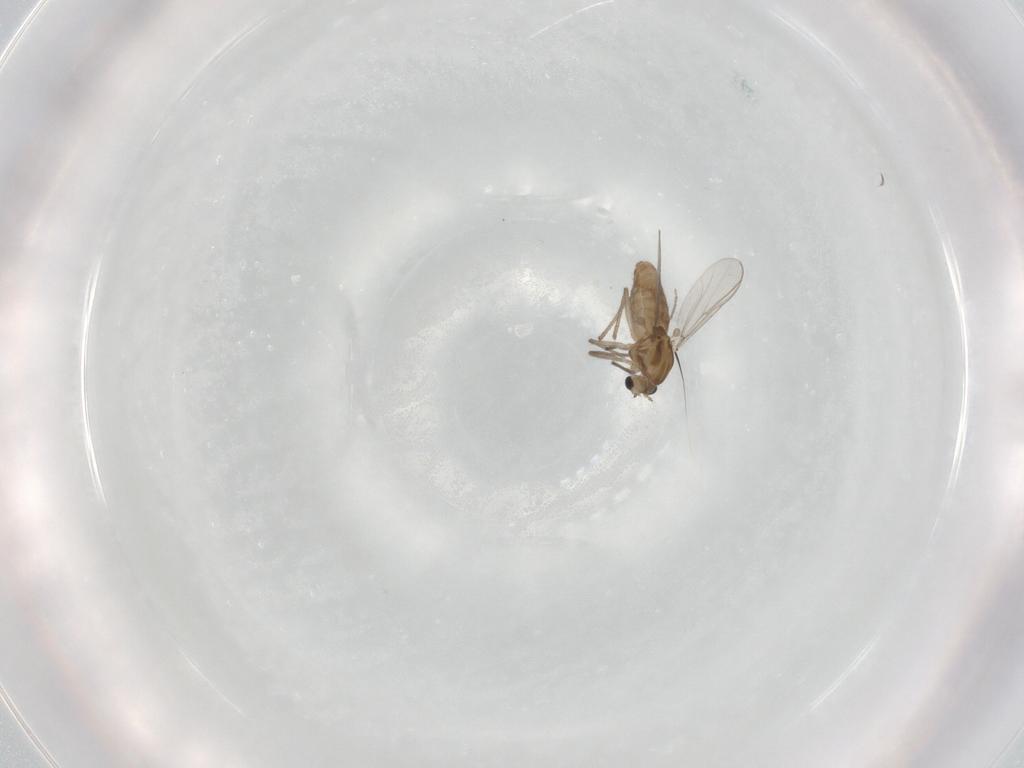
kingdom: Animalia
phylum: Arthropoda
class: Insecta
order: Diptera
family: Chironomidae
